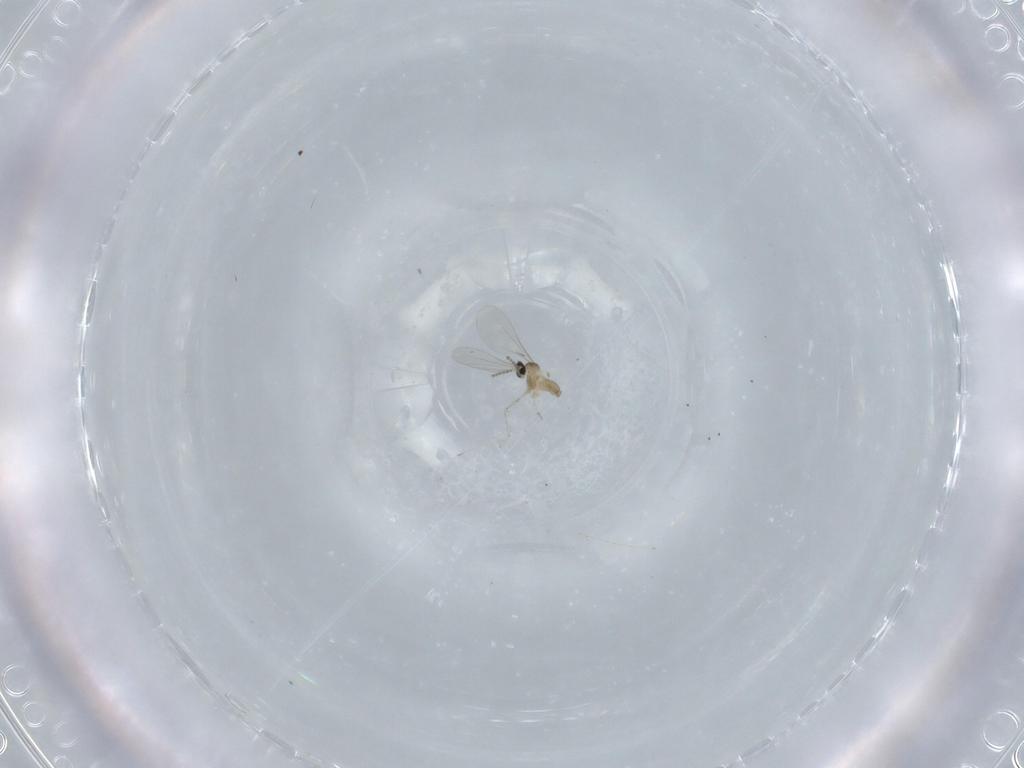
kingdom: Animalia
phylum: Arthropoda
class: Insecta
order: Diptera
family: Cecidomyiidae
